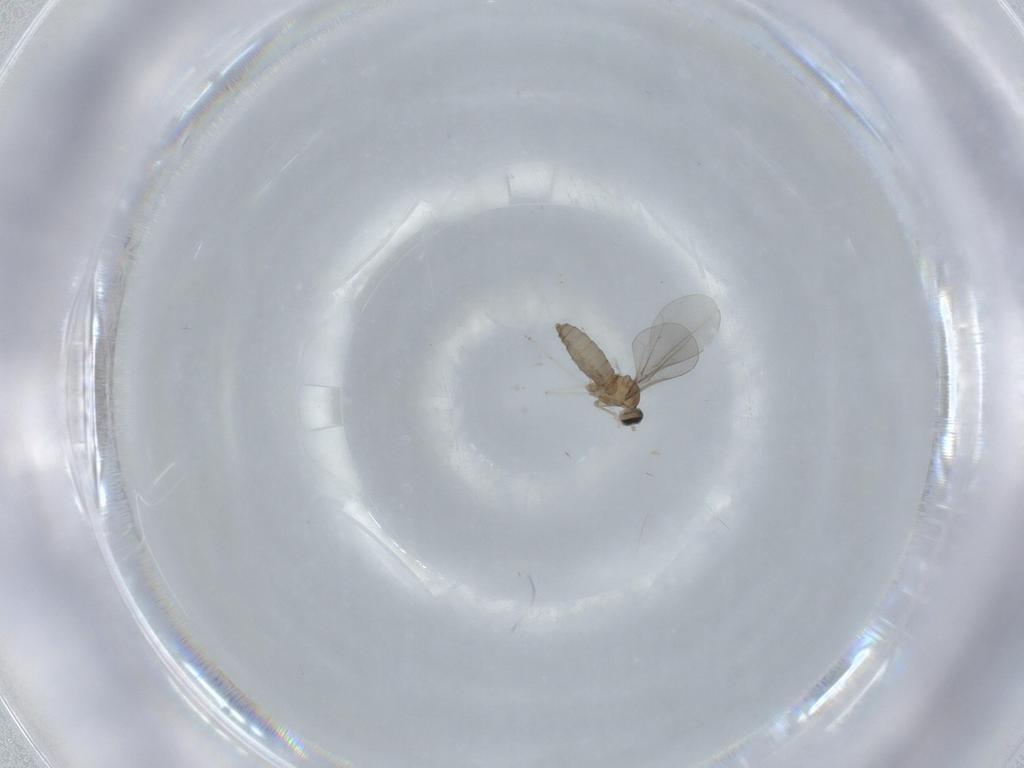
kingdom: Animalia
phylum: Arthropoda
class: Insecta
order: Diptera
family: Cecidomyiidae
